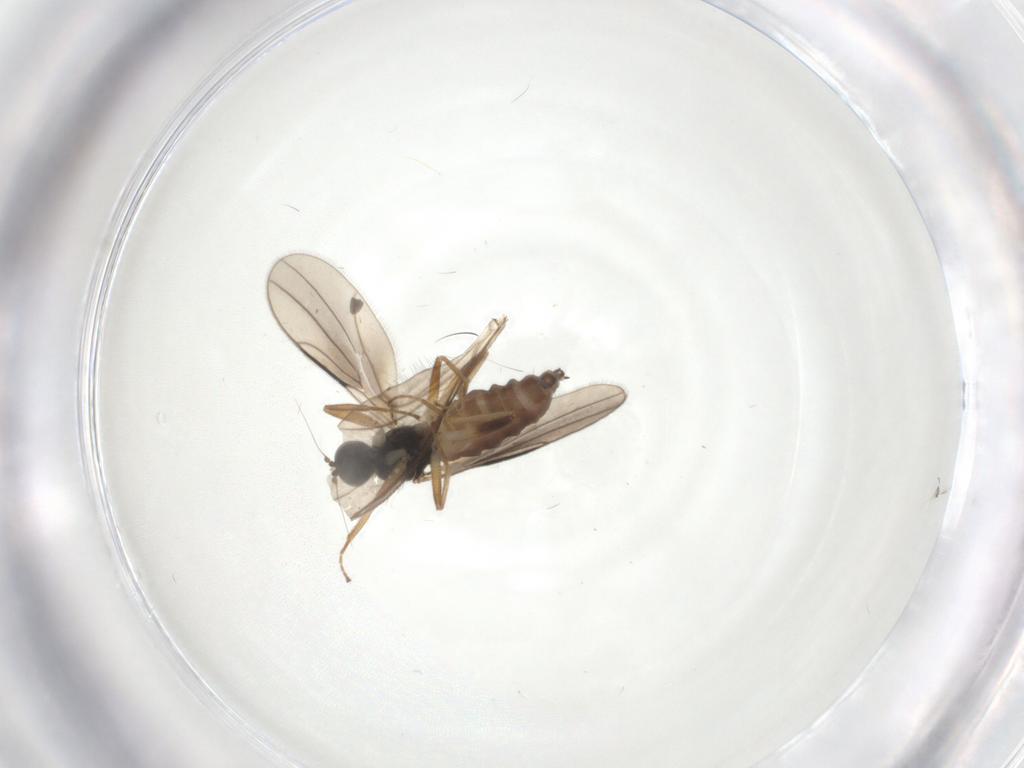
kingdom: Animalia
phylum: Arthropoda
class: Insecta
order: Diptera
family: Hybotidae
